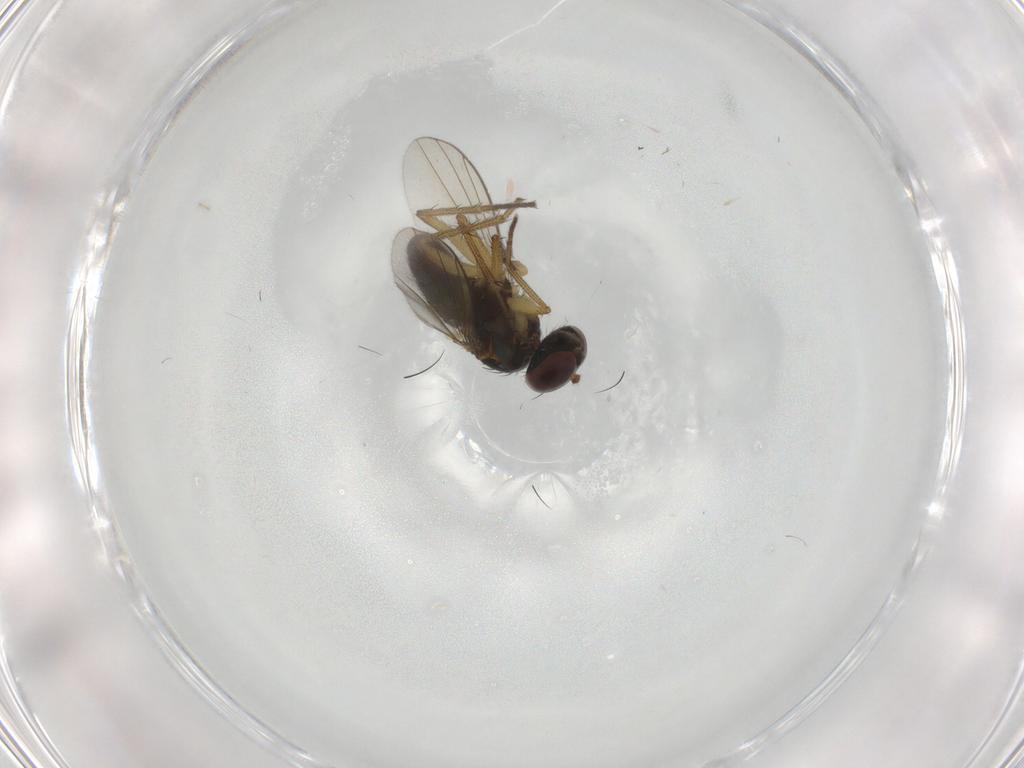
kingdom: Animalia
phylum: Arthropoda
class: Insecta
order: Diptera
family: Dolichopodidae
